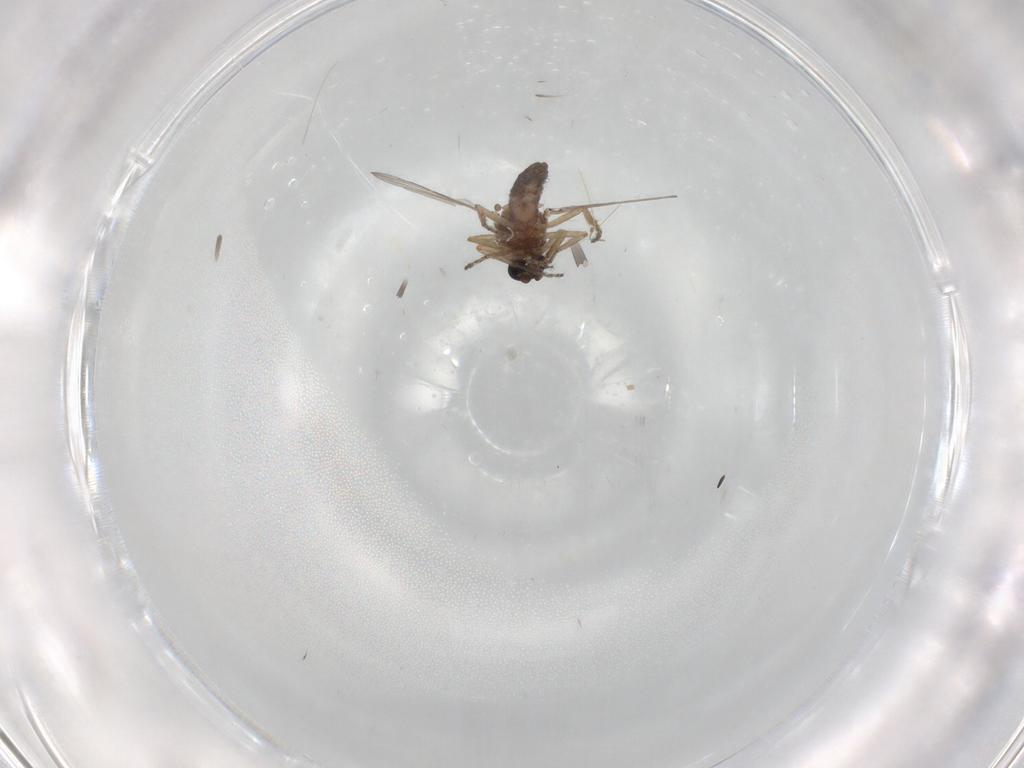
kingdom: Animalia
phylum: Arthropoda
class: Insecta
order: Diptera
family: Ceratopogonidae
